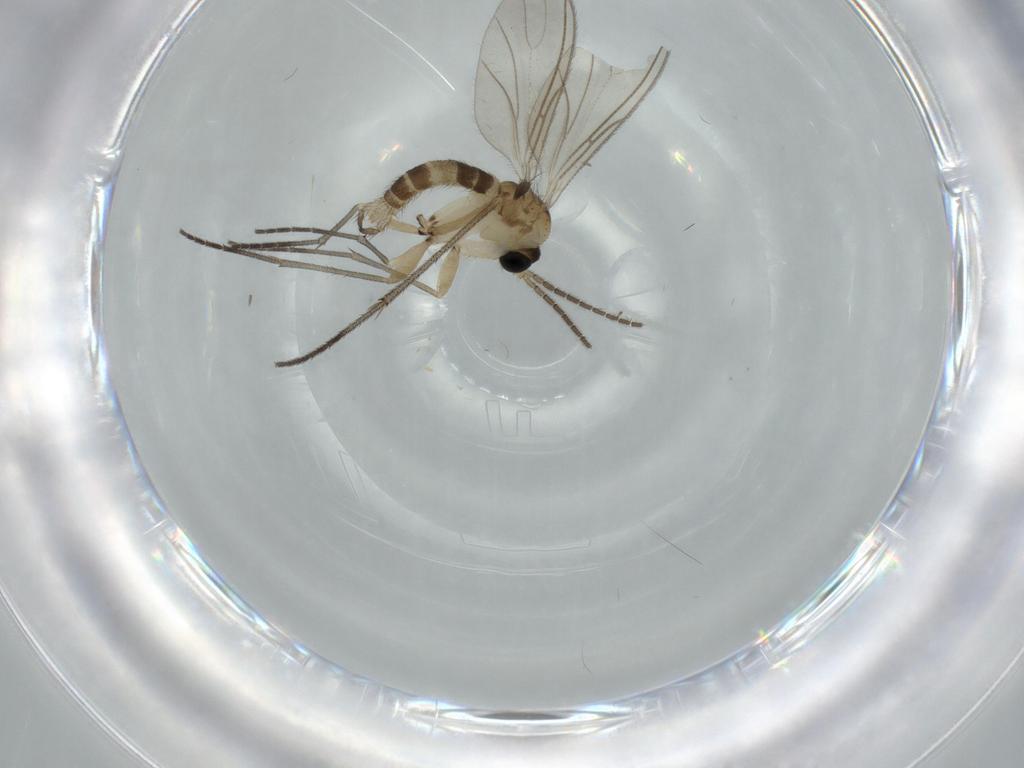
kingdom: Animalia
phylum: Arthropoda
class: Insecta
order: Diptera
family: Sciaridae
